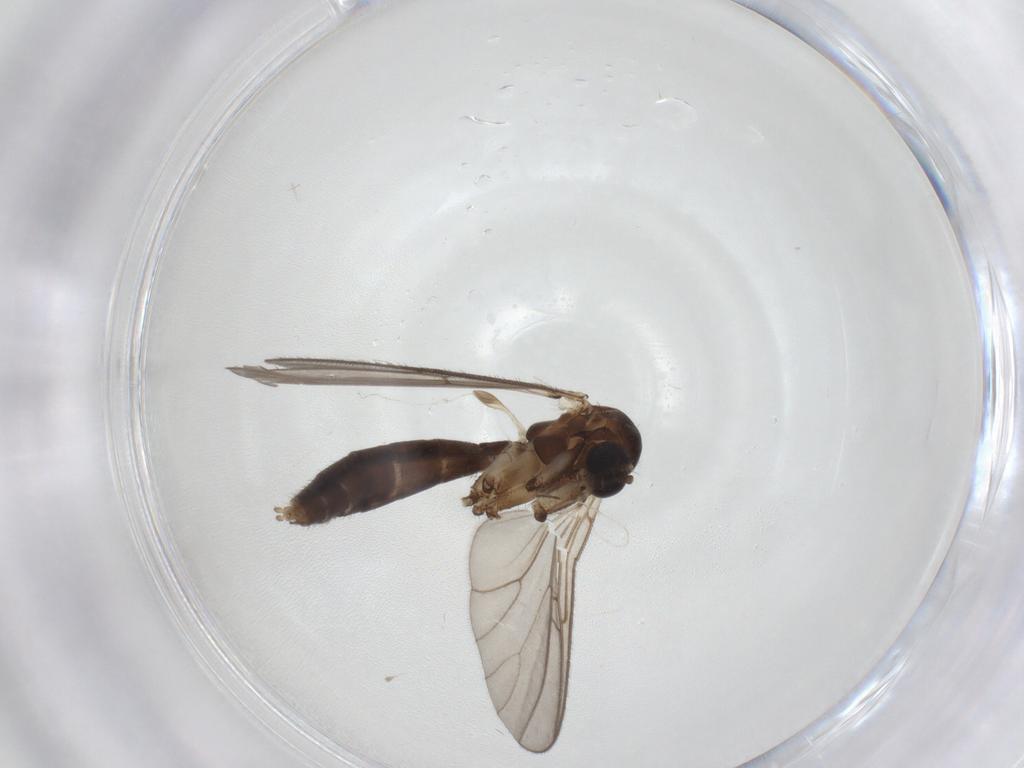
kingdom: Animalia
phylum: Arthropoda
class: Insecta
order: Diptera
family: Mycetophilidae
